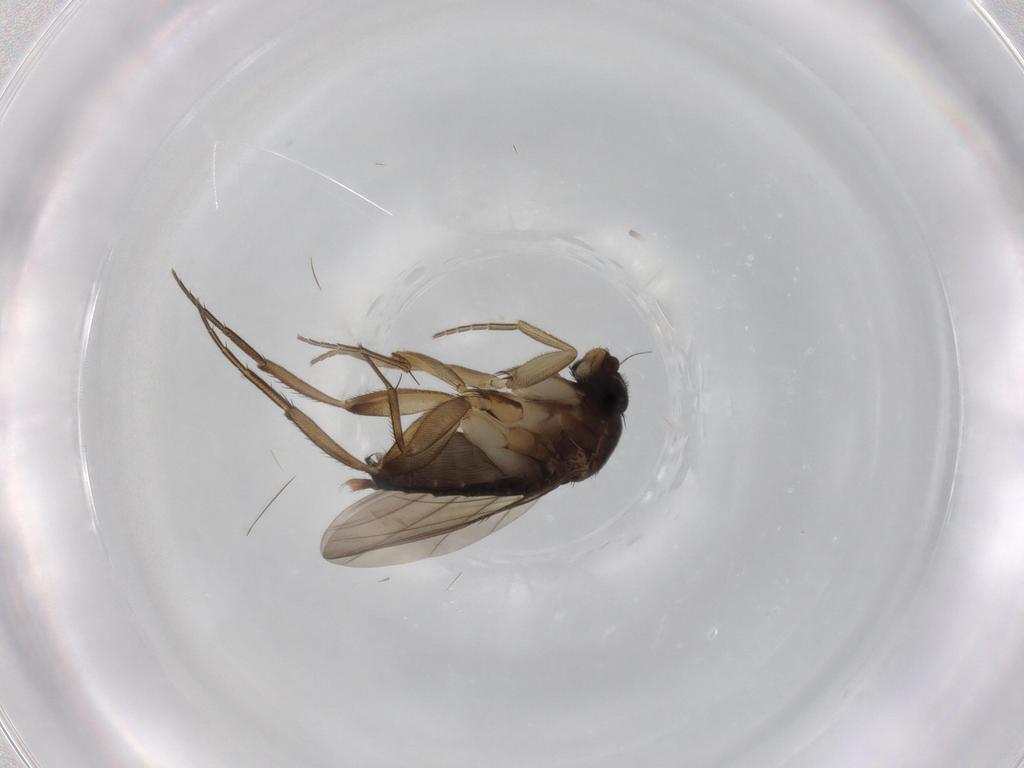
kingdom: Animalia
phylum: Arthropoda
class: Insecta
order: Diptera
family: Phoridae
